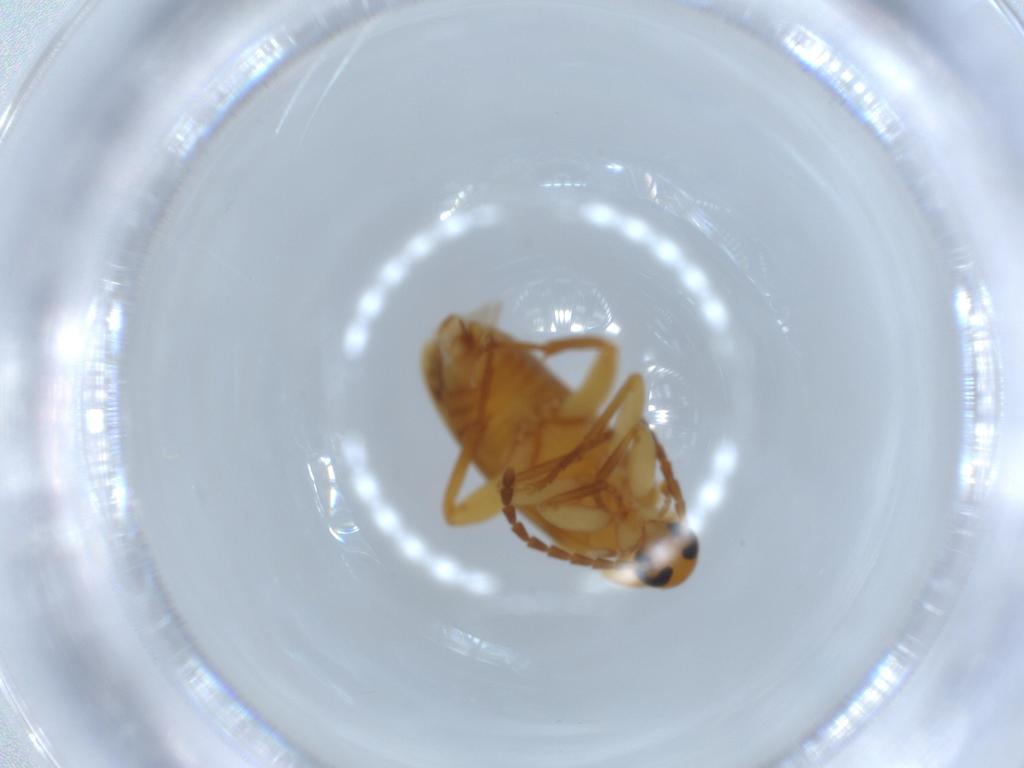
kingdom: Animalia
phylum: Arthropoda
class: Insecta
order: Coleoptera
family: Scraptiidae
